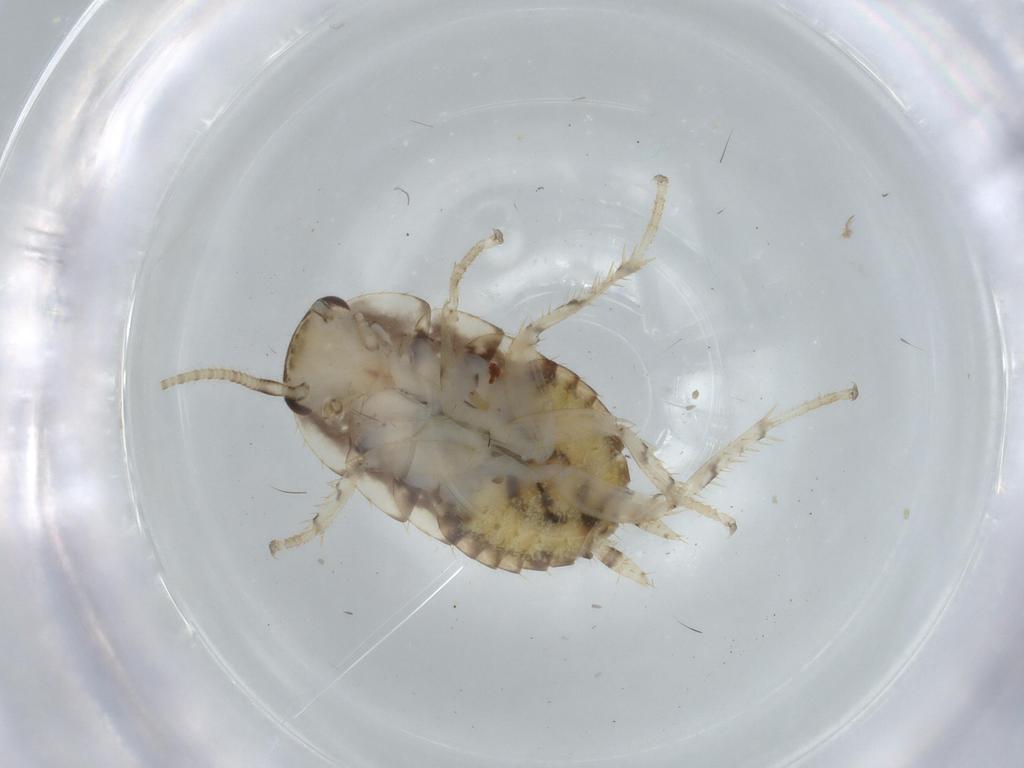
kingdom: Animalia
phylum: Arthropoda
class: Insecta
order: Blattodea
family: Ectobiidae
